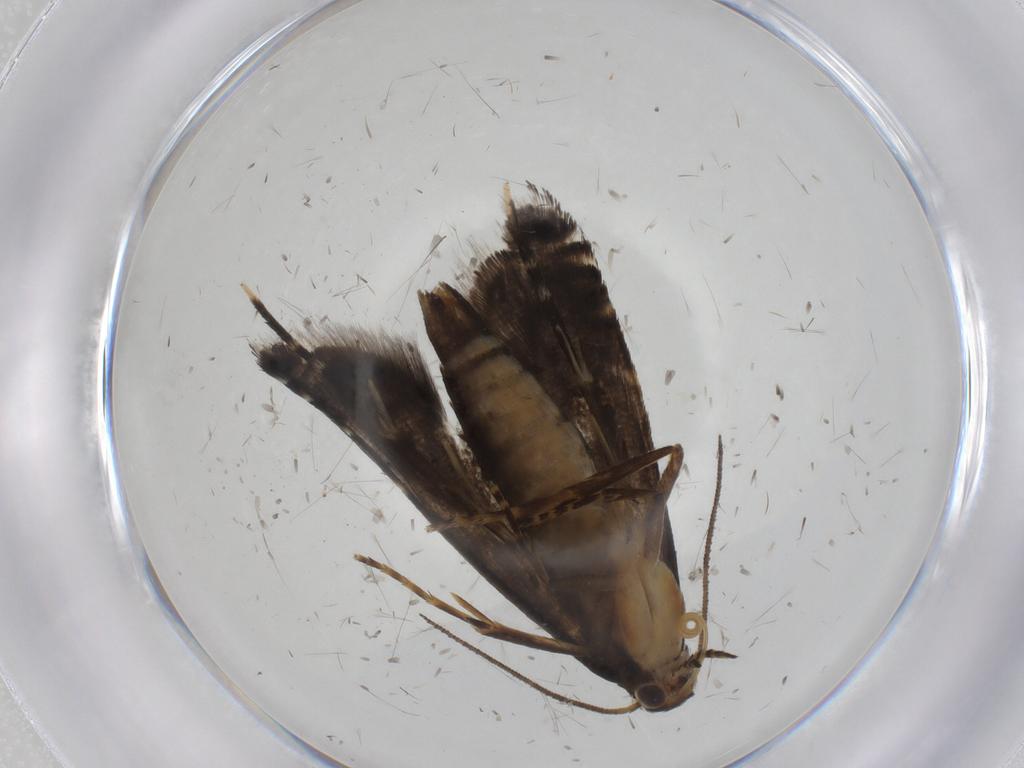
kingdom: Animalia
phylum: Arthropoda
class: Insecta
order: Lepidoptera
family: Glyphipterigidae
